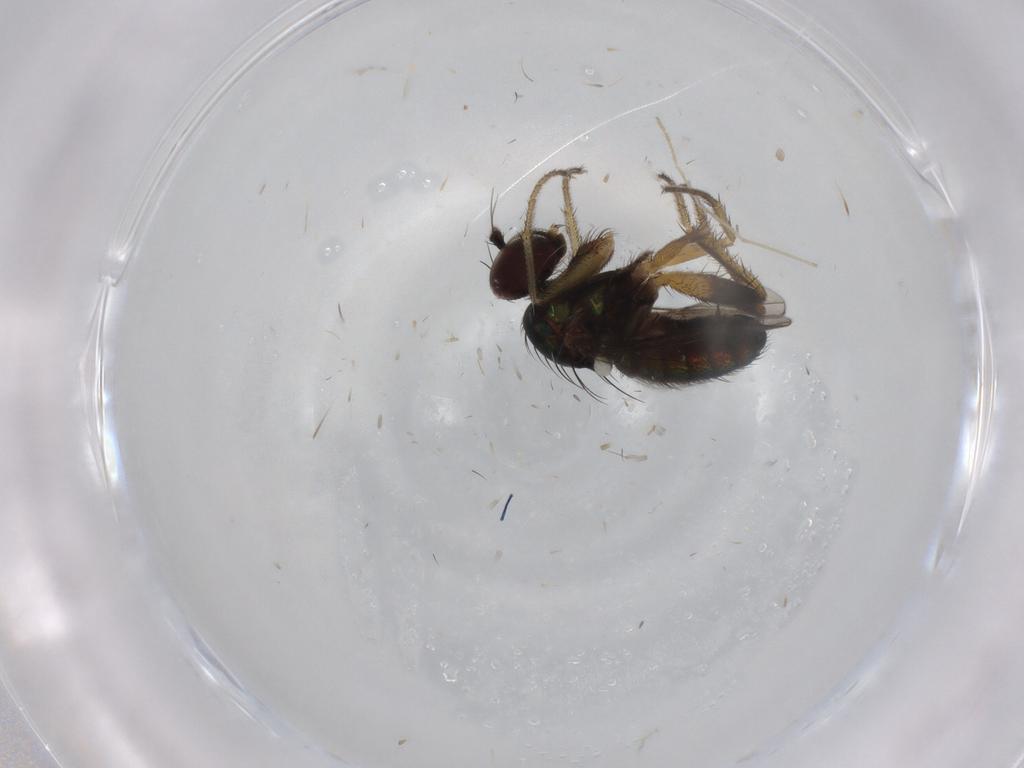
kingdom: Animalia
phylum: Arthropoda
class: Insecta
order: Diptera
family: Dolichopodidae
